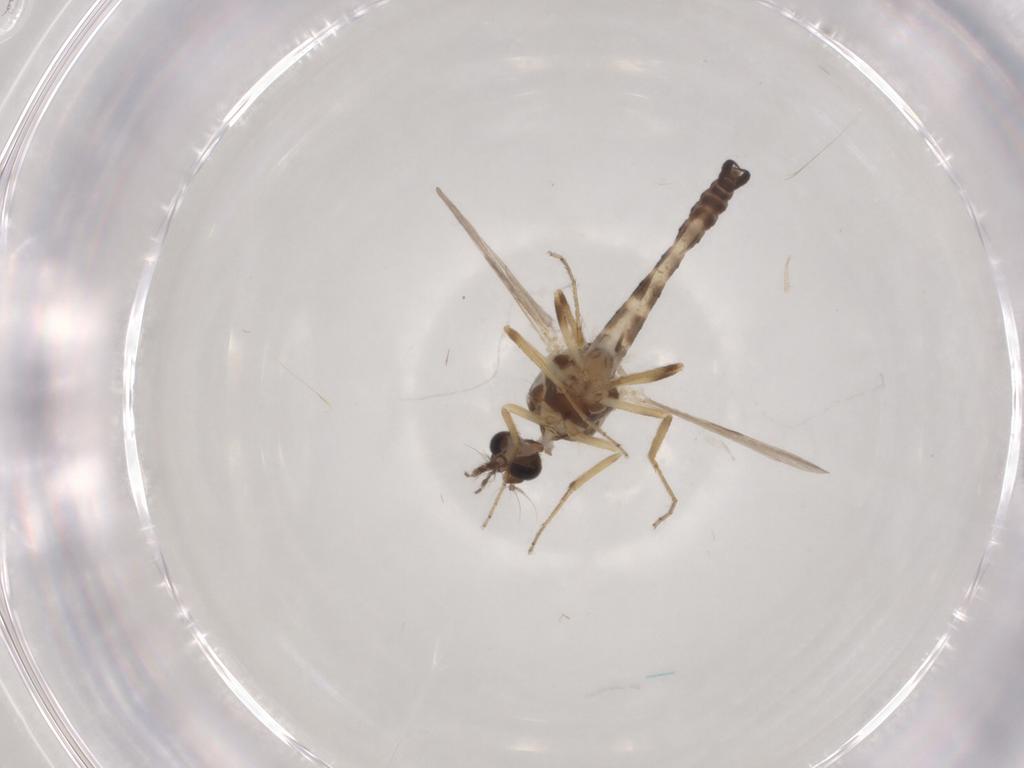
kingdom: Animalia
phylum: Arthropoda
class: Insecta
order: Diptera
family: Ceratopogonidae
